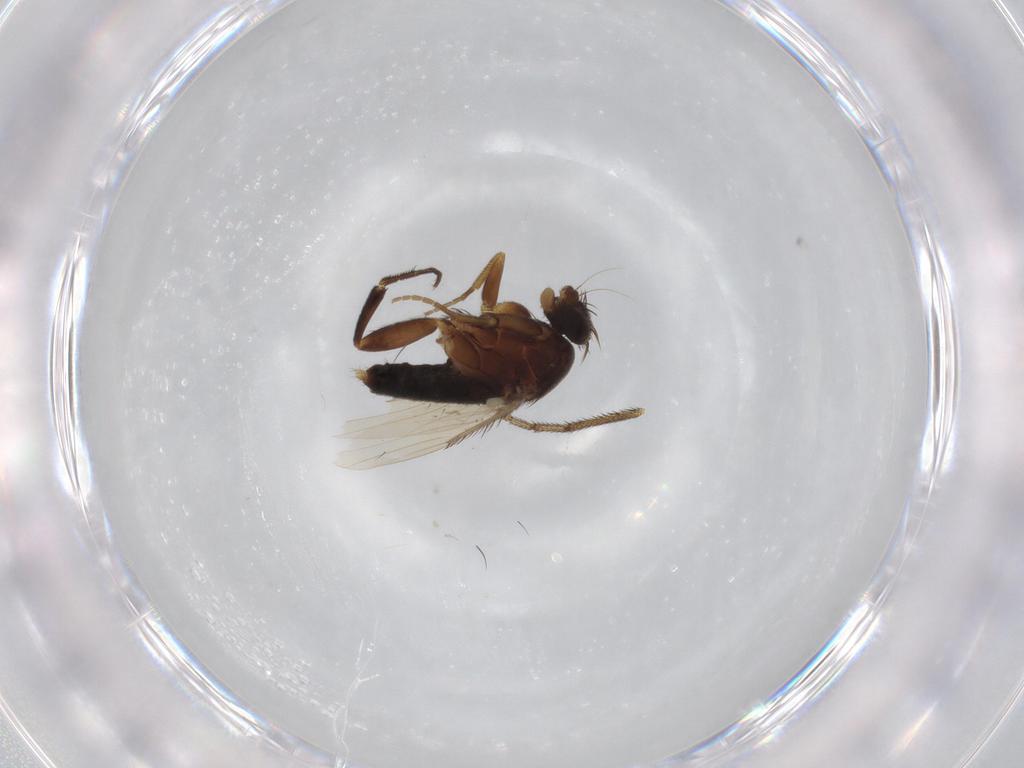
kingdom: Animalia
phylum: Arthropoda
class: Insecta
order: Diptera
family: Muscidae
